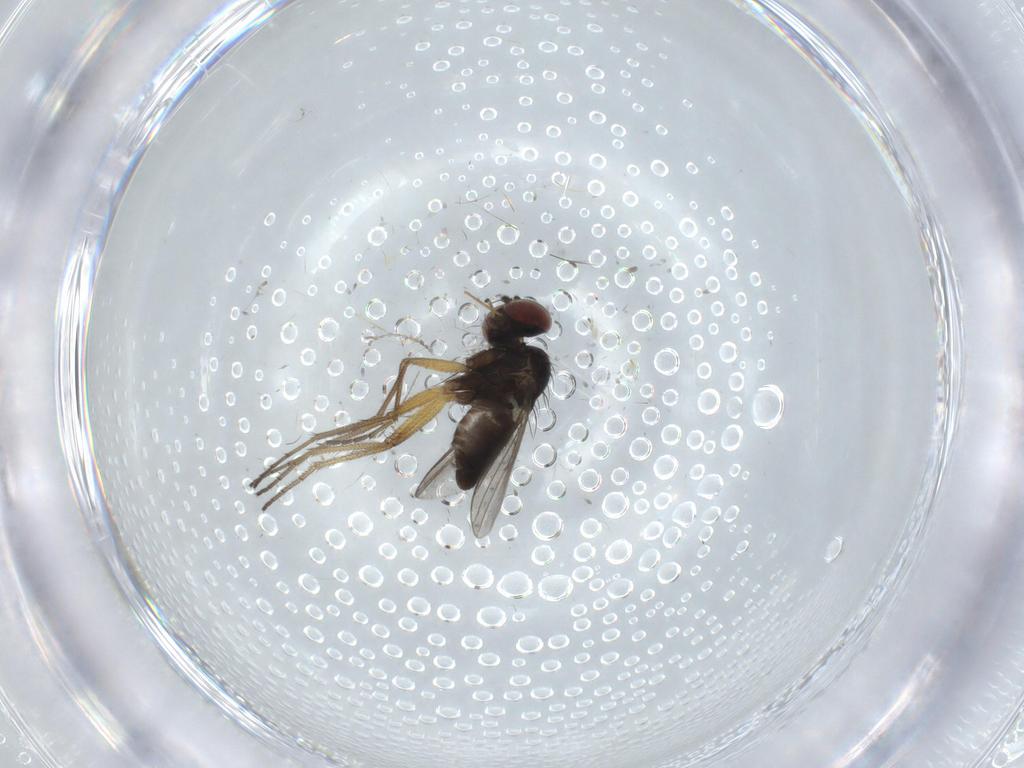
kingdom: Animalia
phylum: Arthropoda
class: Insecta
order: Diptera
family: Dolichopodidae
